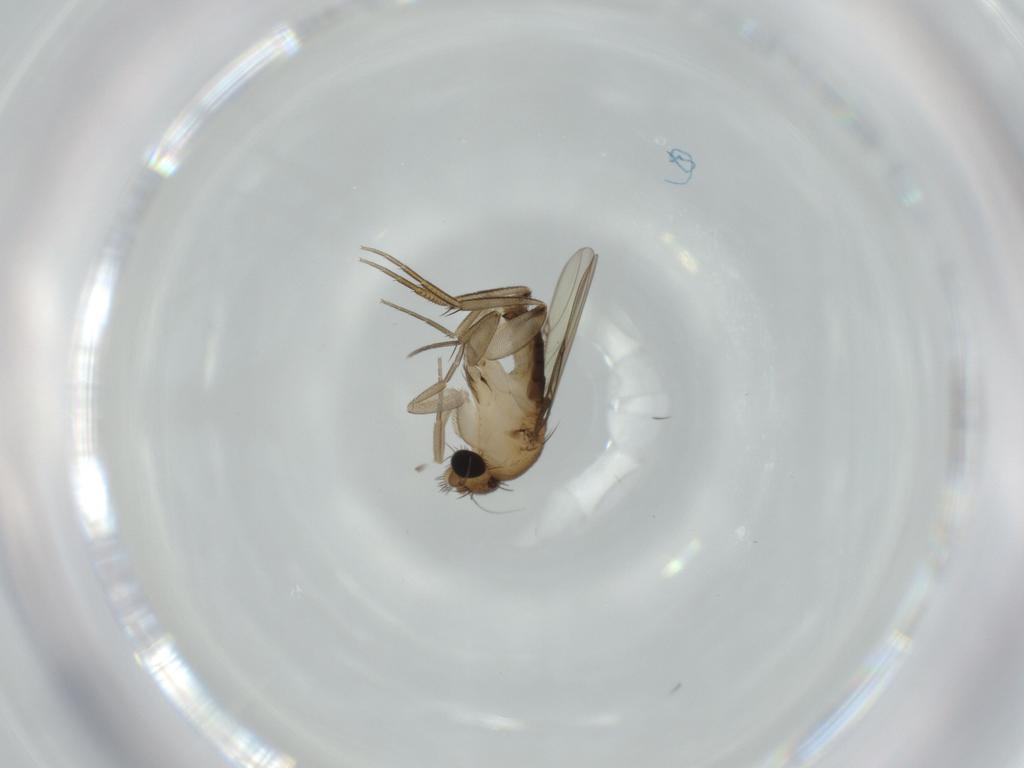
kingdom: Animalia
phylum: Arthropoda
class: Insecta
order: Diptera
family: Phoridae
